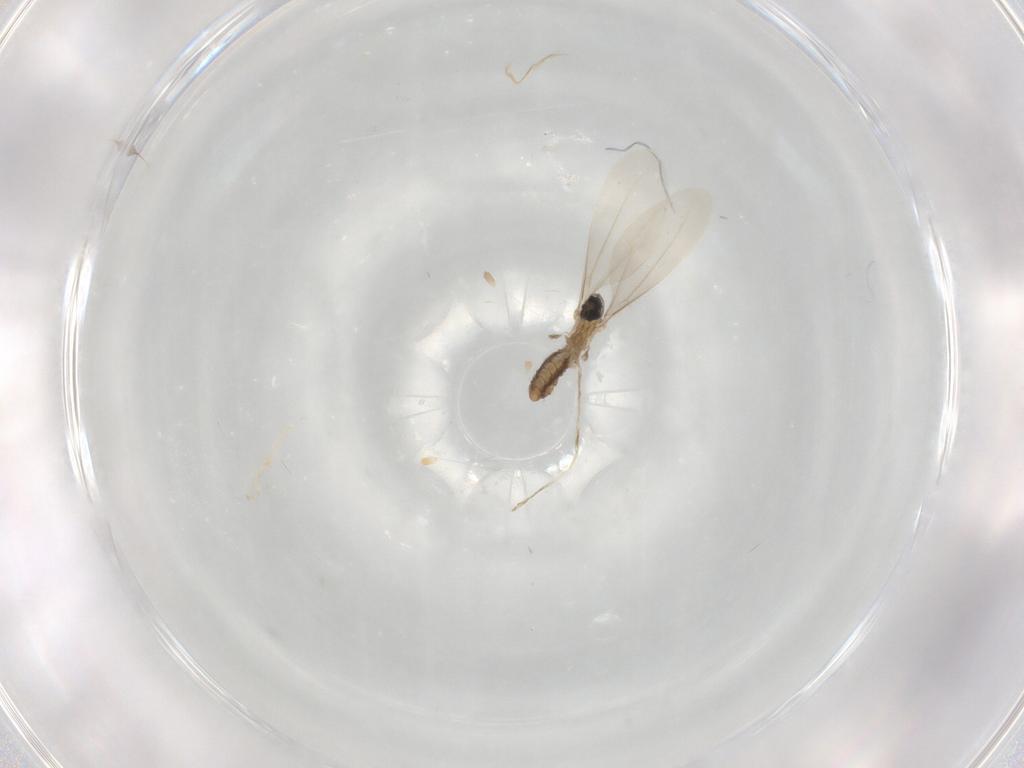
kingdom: Animalia
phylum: Arthropoda
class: Insecta
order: Diptera
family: Cecidomyiidae
